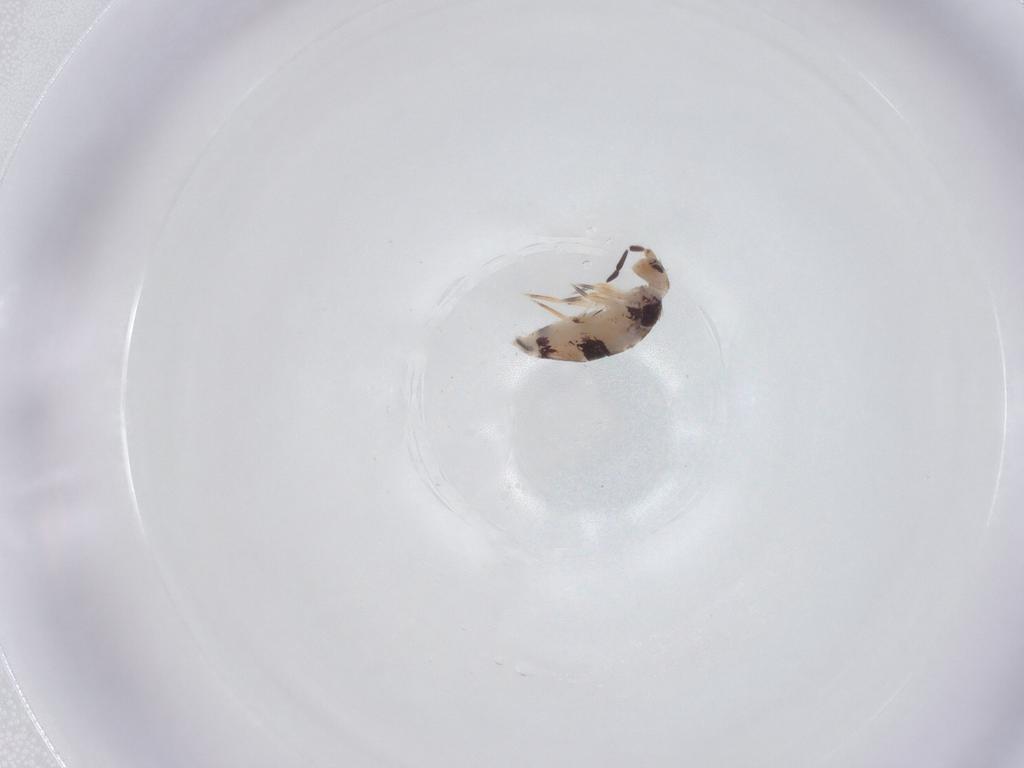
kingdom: Animalia
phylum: Arthropoda
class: Collembola
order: Entomobryomorpha
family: Entomobryidae
